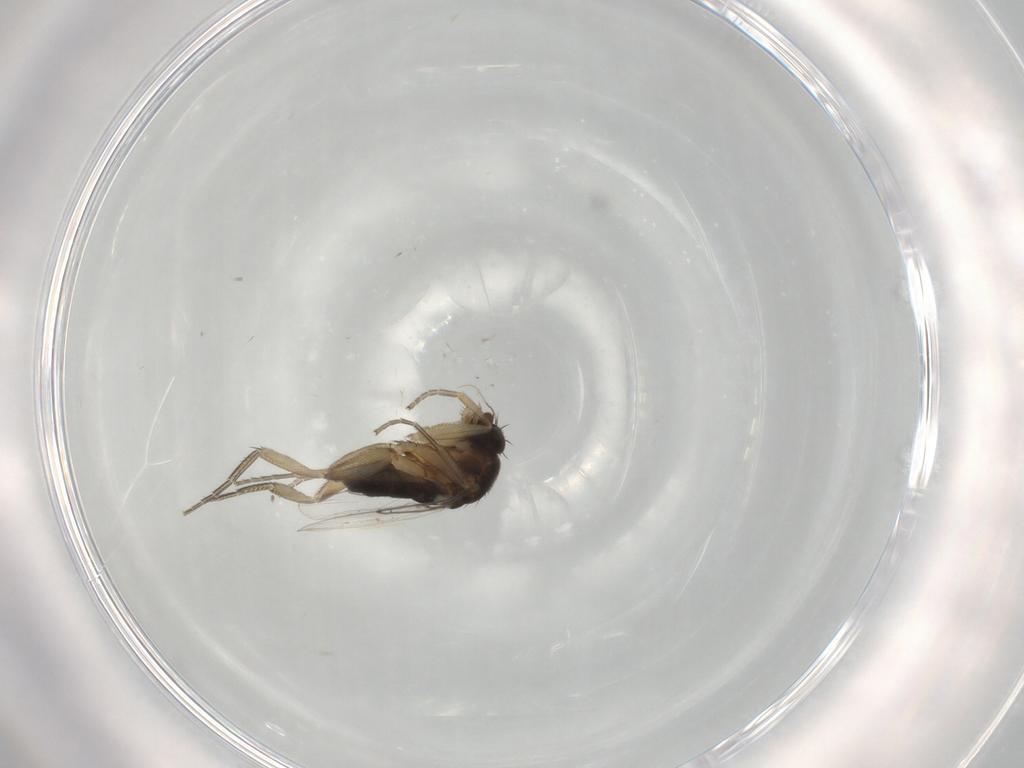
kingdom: Animalia
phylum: Arthropoda
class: Insecta
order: Diptera
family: Phoridae
